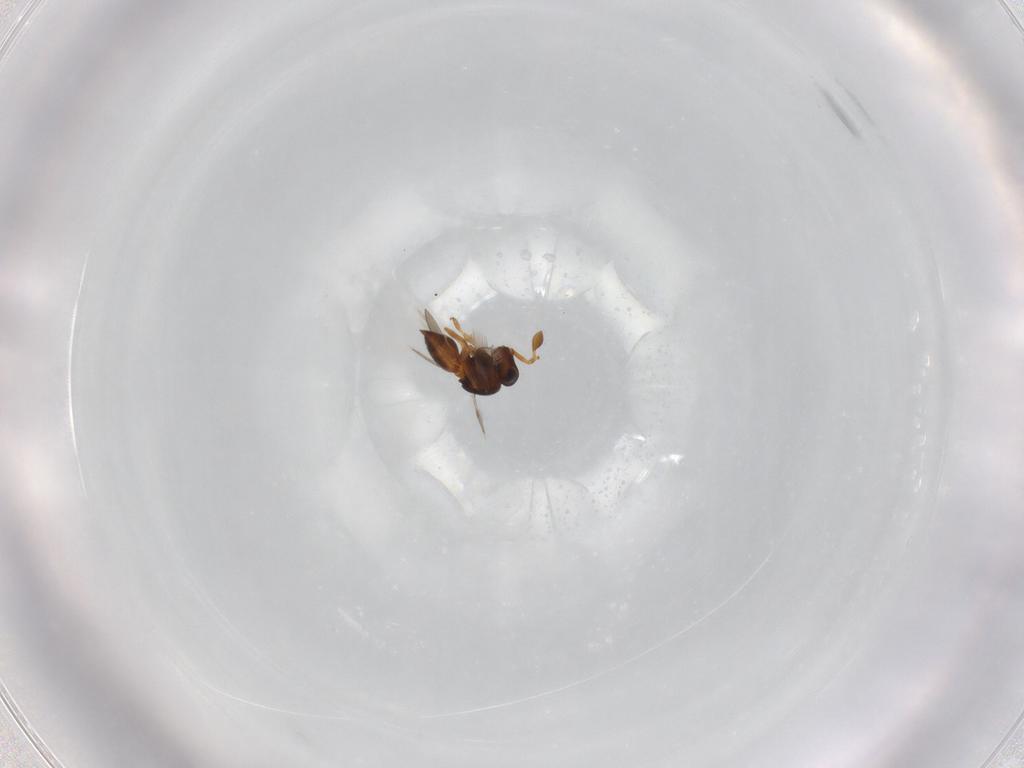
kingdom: Animalia
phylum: Arthropoda
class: Insecta
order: Hymenoptera
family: Scelionidae
